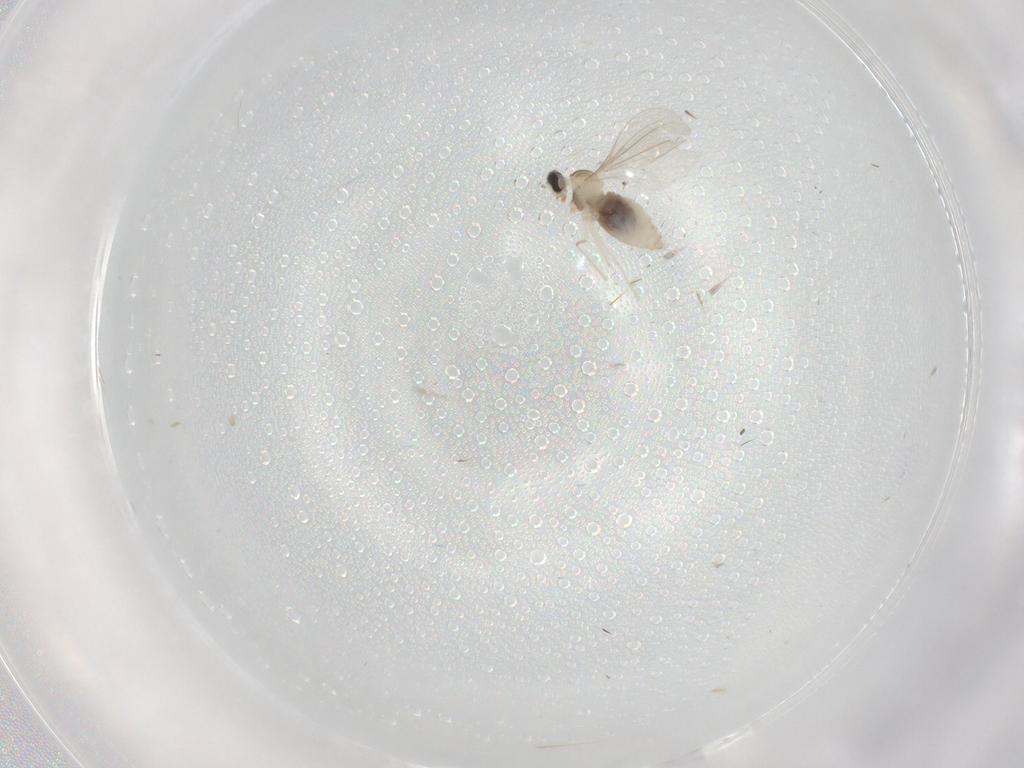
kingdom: Animalia
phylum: Arthropoda
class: Insecta
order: Diptera
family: Cecidomyiidae
